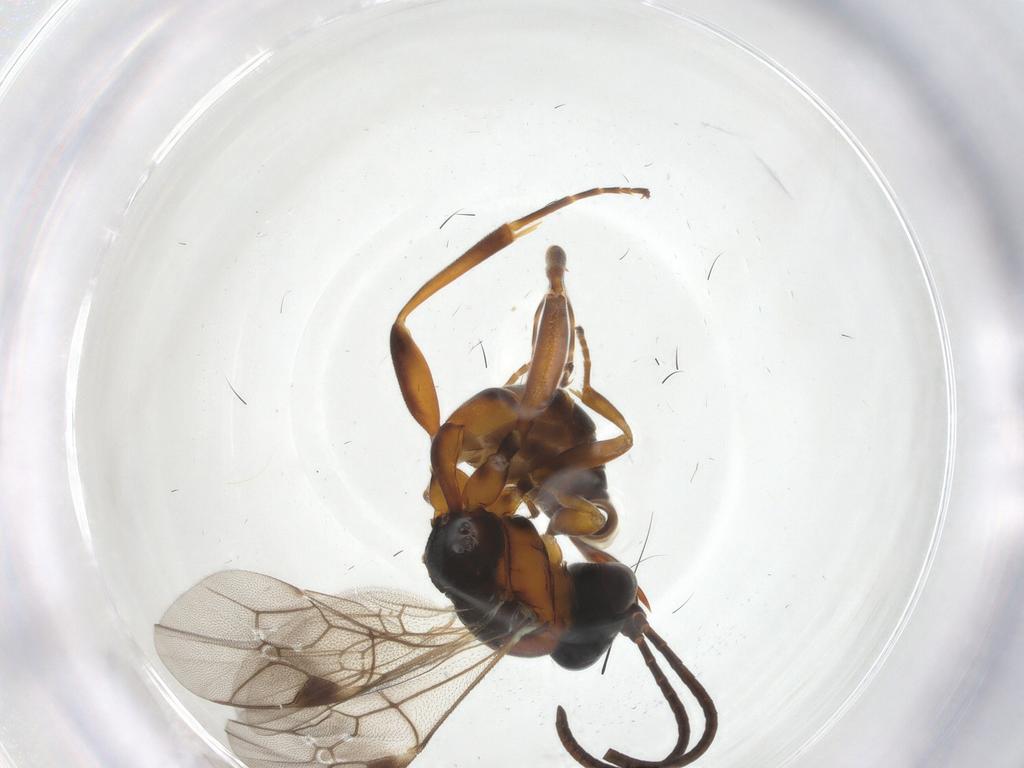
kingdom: Animalia
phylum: Arthropoda
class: Insecta
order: Hymenoptera
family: Ichneumonidae
